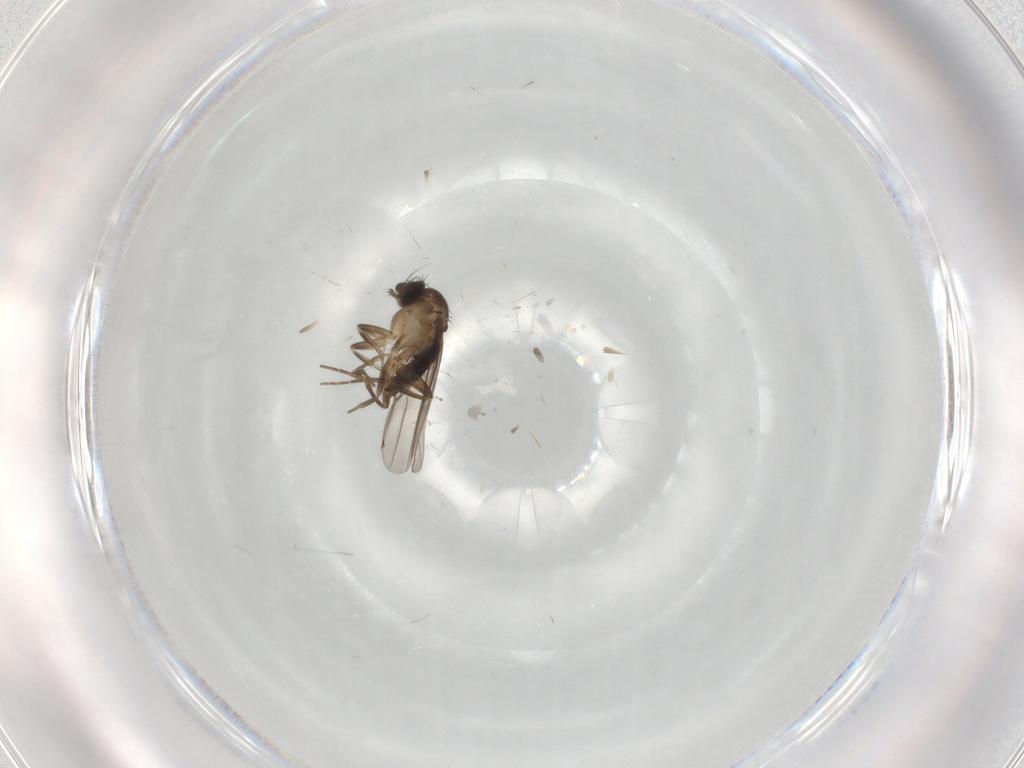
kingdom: Animalia
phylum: Arthropoda
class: Insecta
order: Diptera
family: Phoridae
